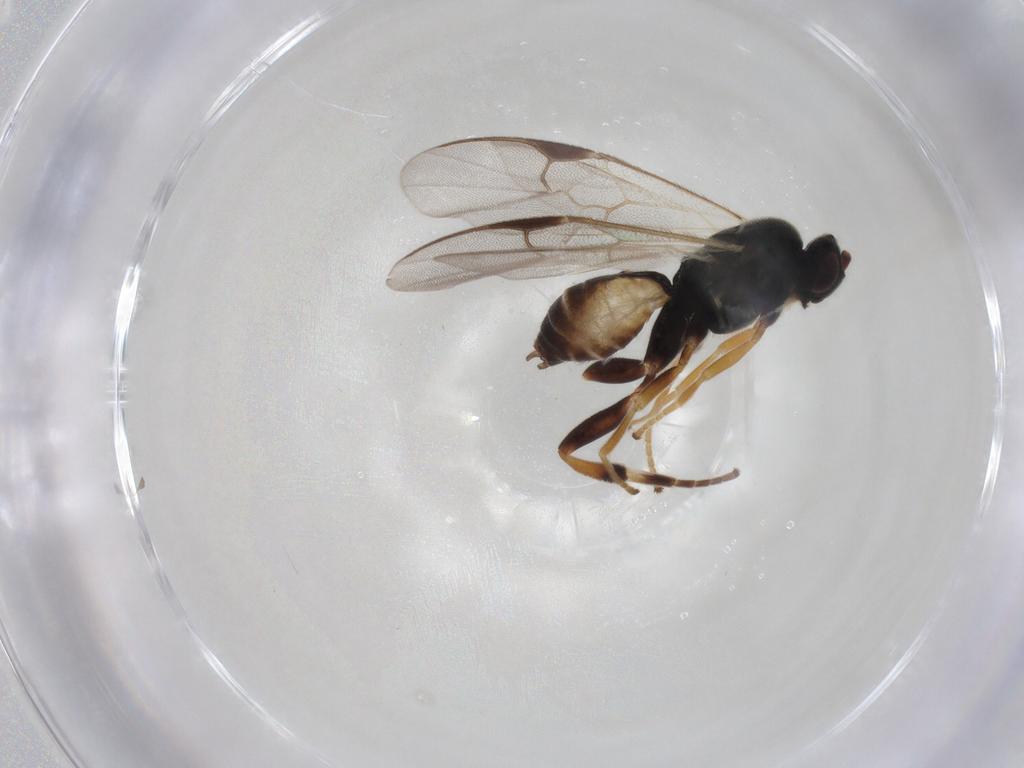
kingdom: Animalia
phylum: Arthropoda
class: Insecta
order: Hymenoptera
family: Braconidae
